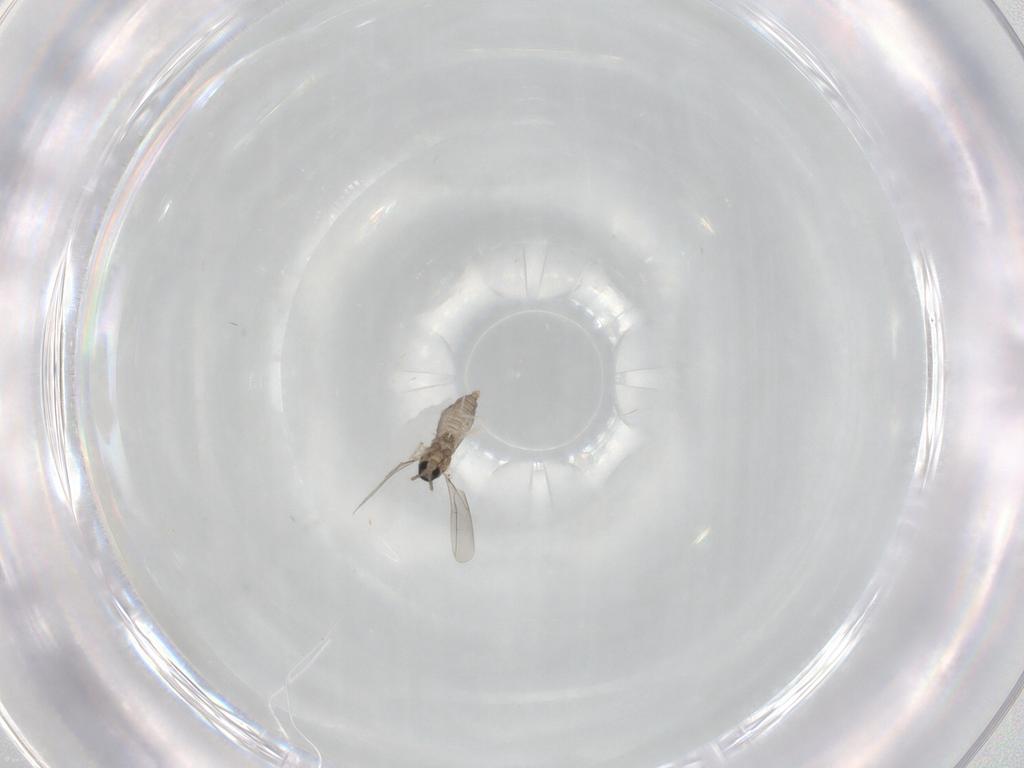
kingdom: Animalia
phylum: Arthropoda
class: Insecta
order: Diptera
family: Cecidomyiidae
